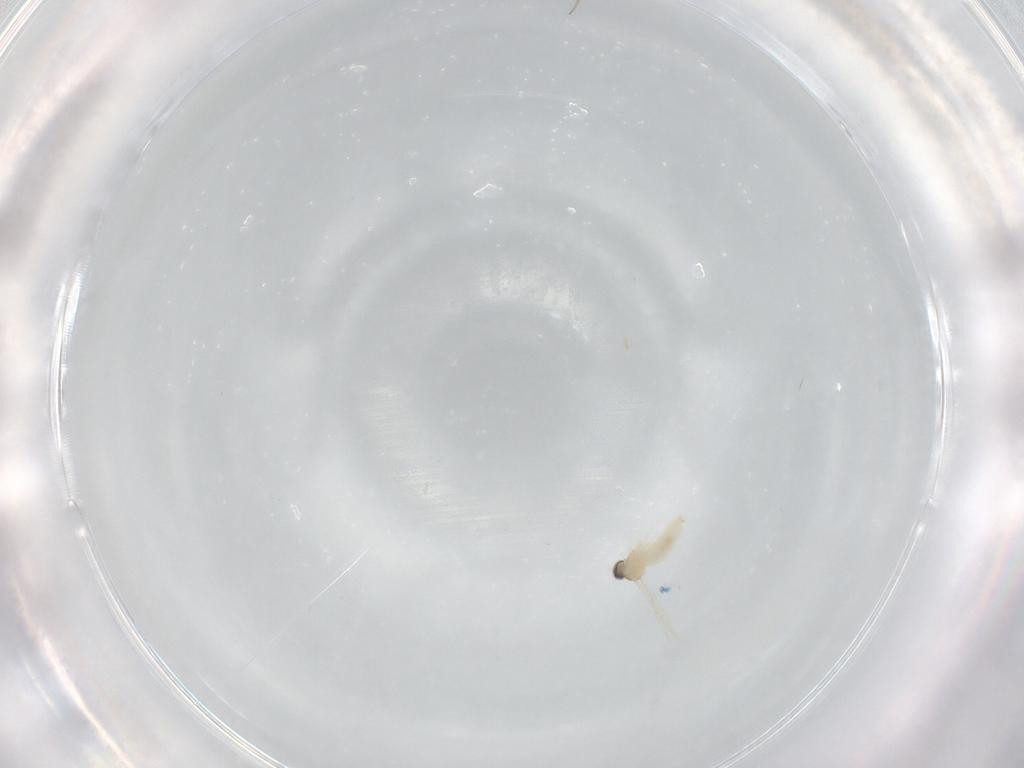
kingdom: Animalia
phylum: Arthropoda
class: Insecta
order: Diptera
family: Cecidomyiidae
